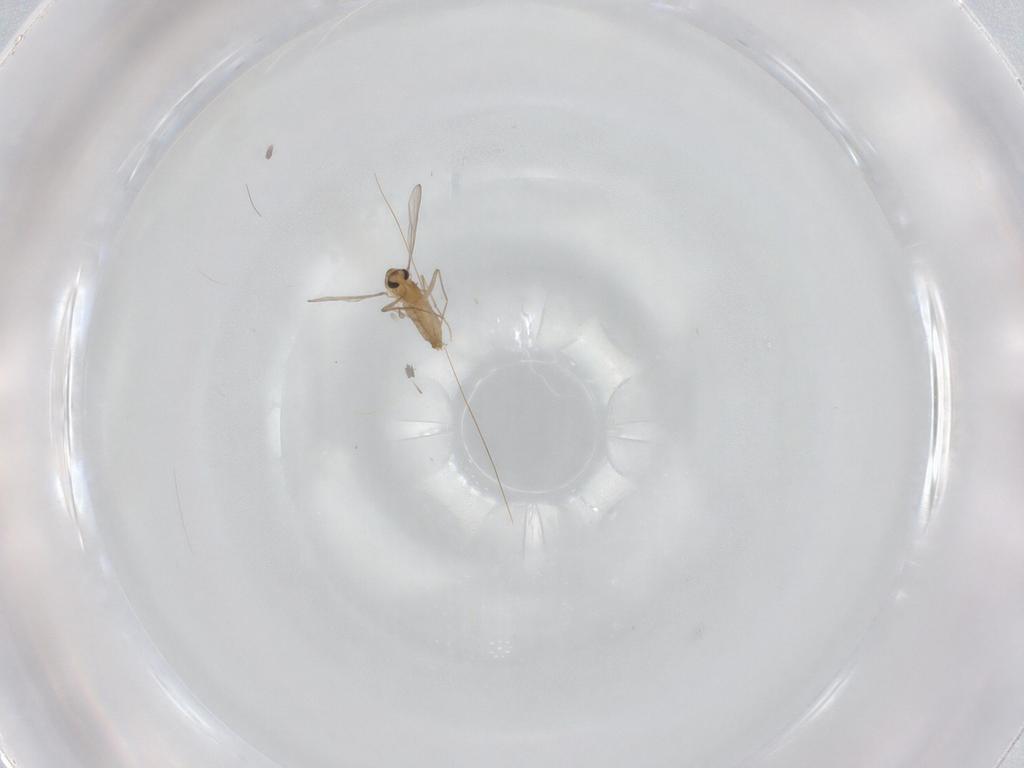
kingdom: Animalia
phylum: Arthropoda
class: Insecta
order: Diptera
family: Chironomidae
